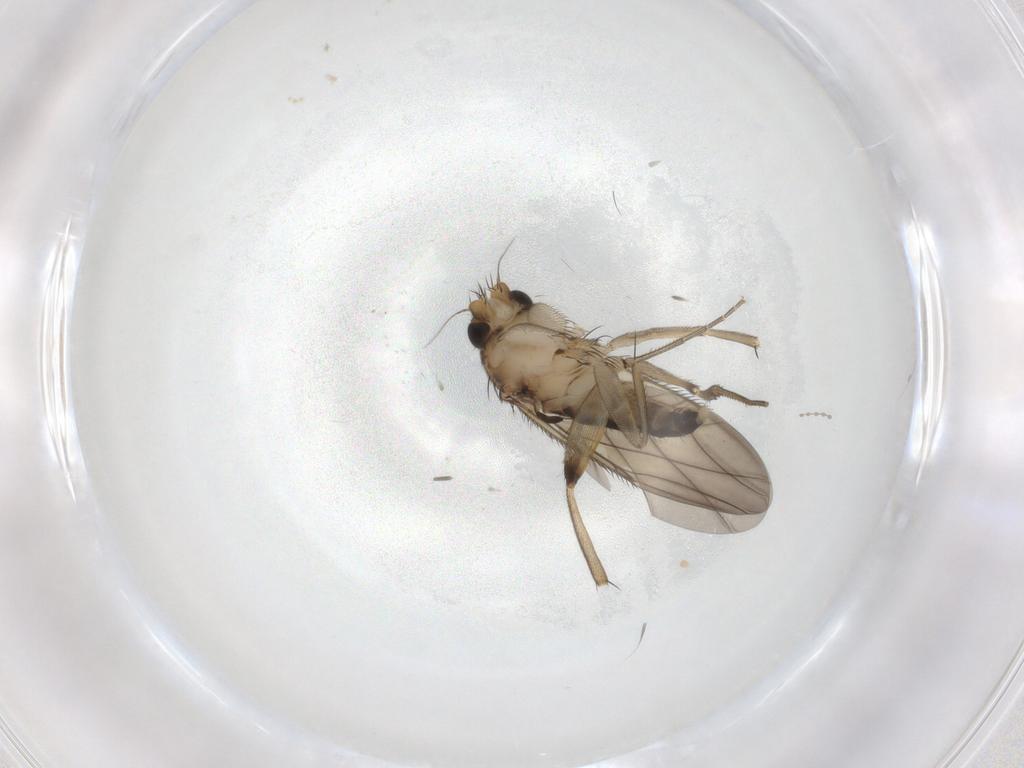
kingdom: Animalia
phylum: Arthropoda
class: Insecta
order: Diptera
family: Phoridae
